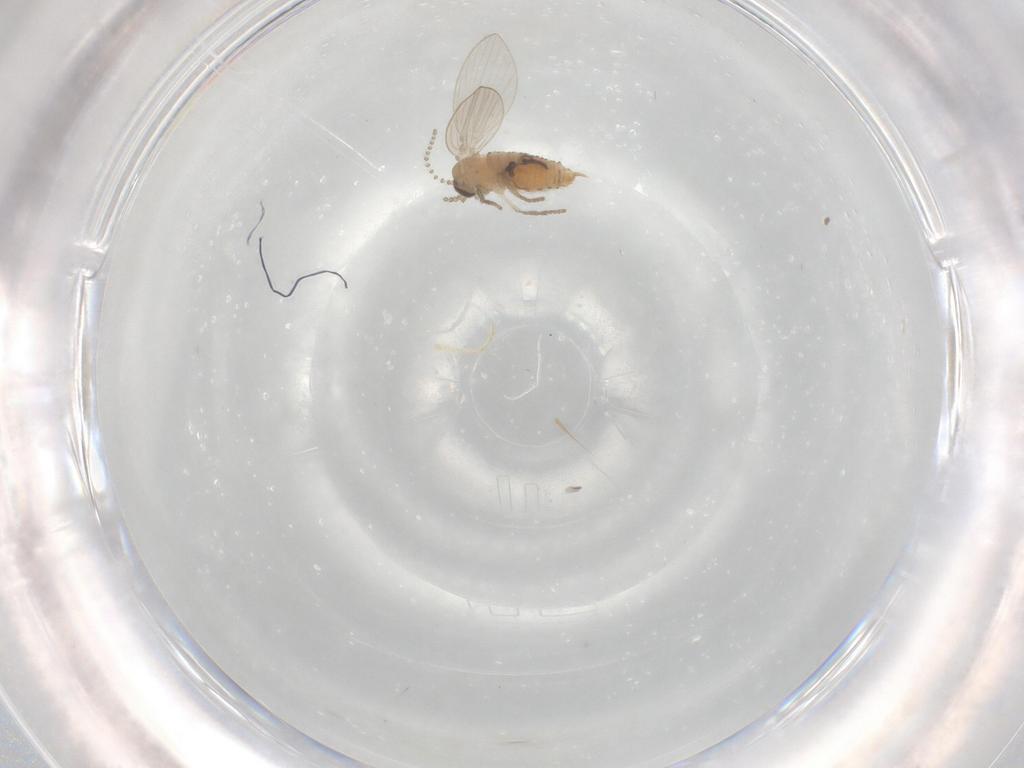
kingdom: Animalia
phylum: Arthropoda
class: Insecta
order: Diptera
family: Psychodidae
